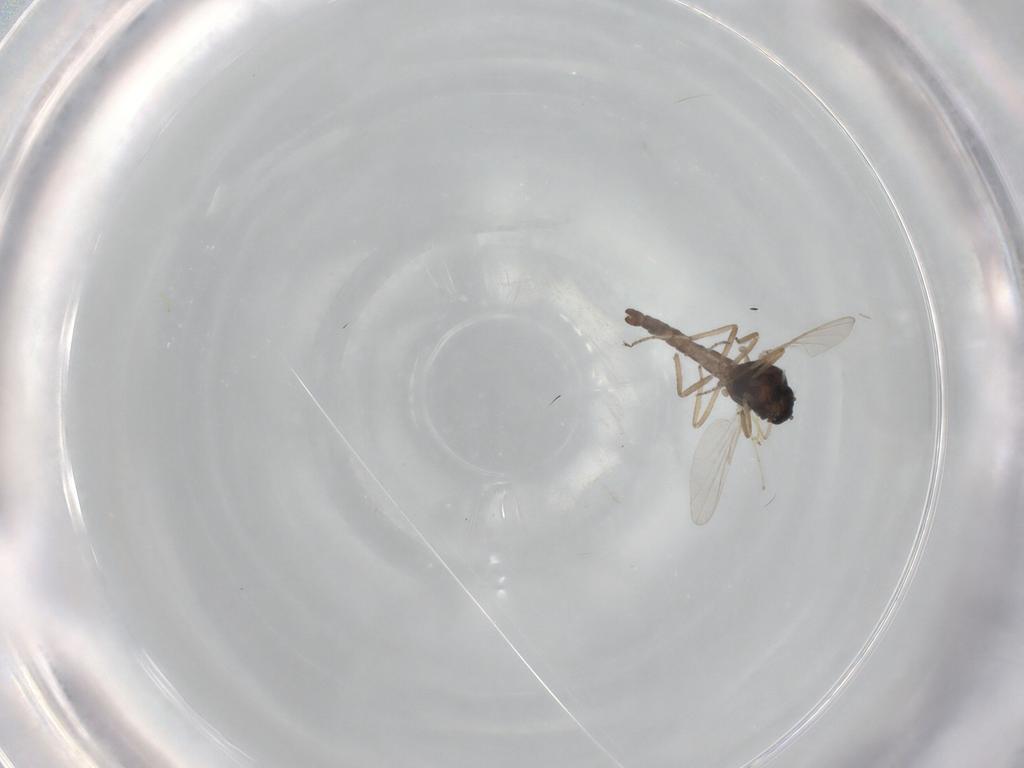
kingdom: Animalia
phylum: Arthropoda
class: Insecta
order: Diptera
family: Ceratopogonidae
